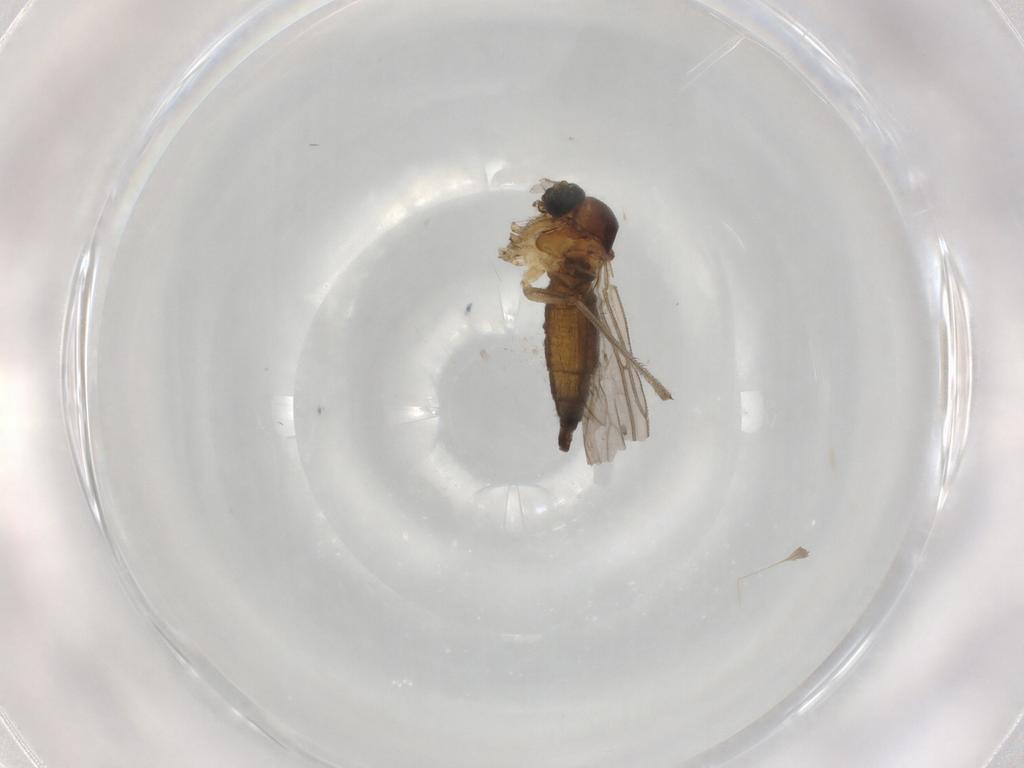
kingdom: Animalia
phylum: Arthropoda
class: Insecta
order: Diptera
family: Sciaridae
